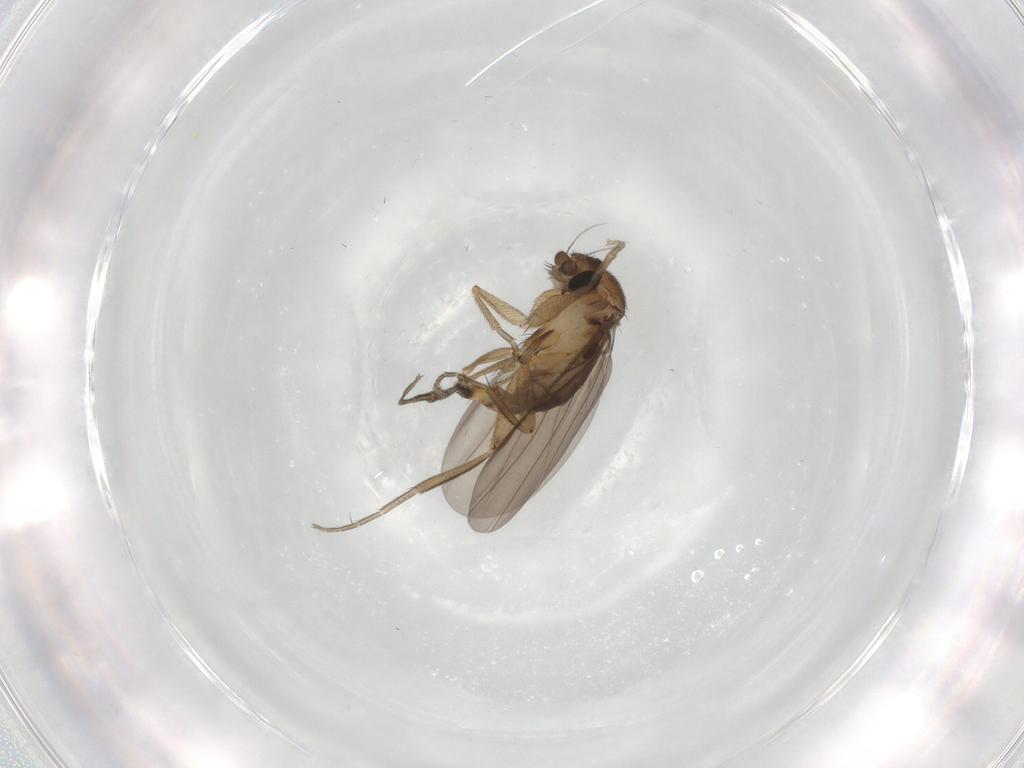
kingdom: Animalia
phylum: Arthropoda
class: Insecta
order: Diptera
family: Phoridae
